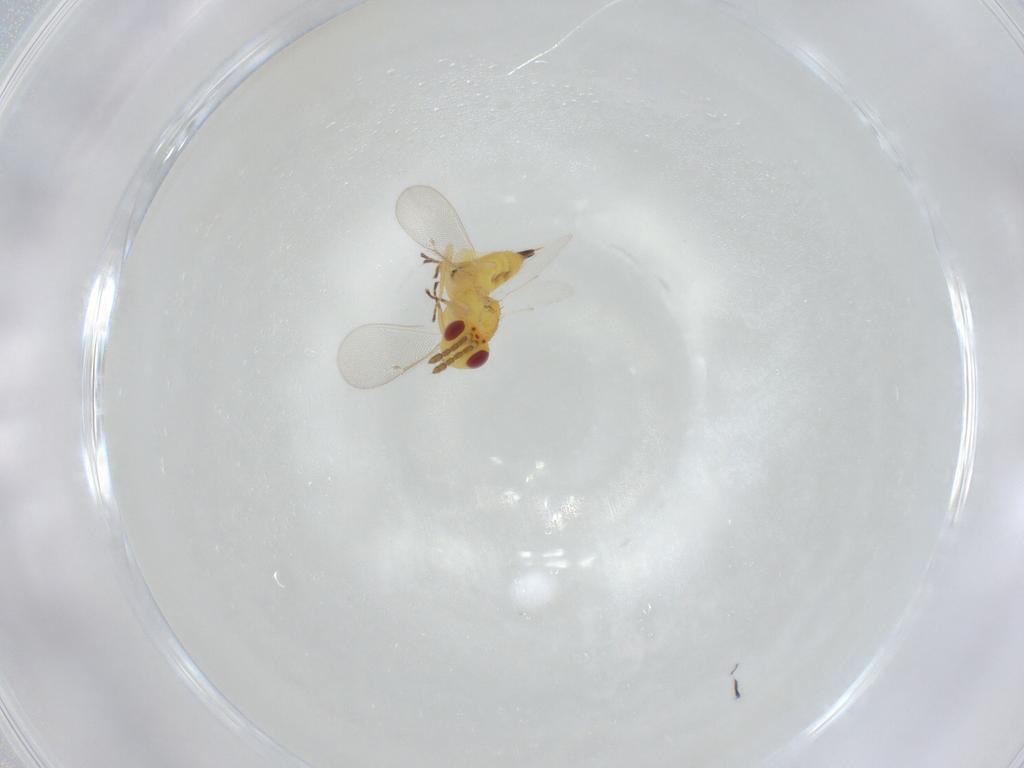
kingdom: Animalia
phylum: Arthropoda
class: Insecta
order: Hymenoptera
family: Eulophidae
